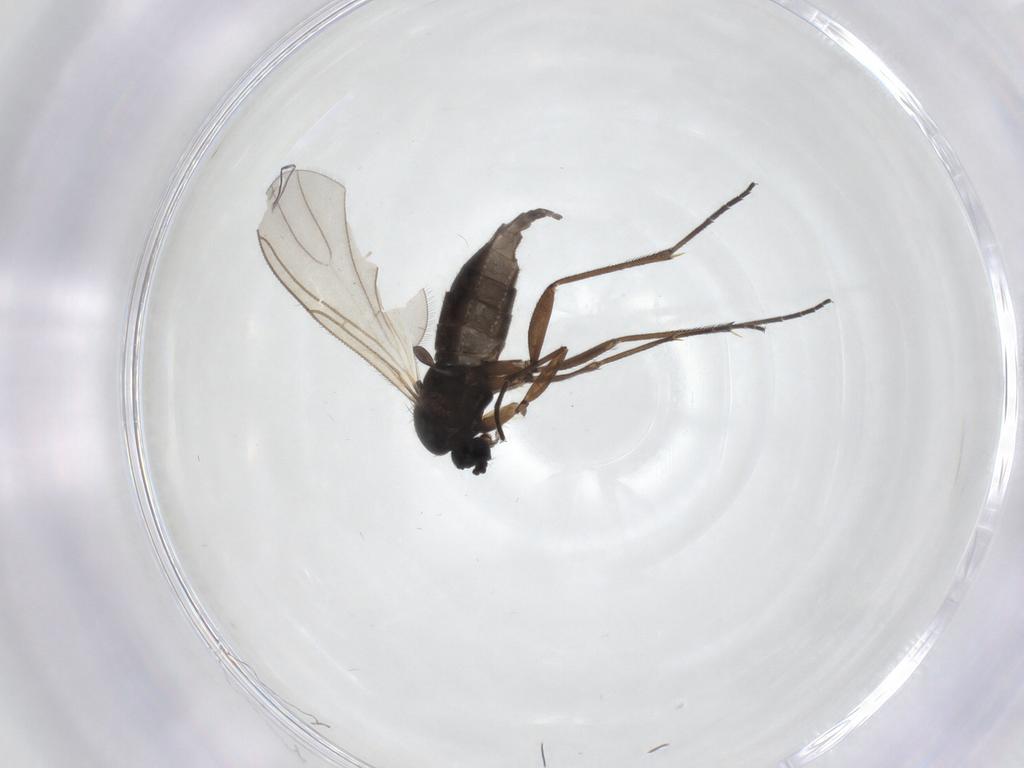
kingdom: Animalia
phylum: Arthropoda
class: Insecta
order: Diptera
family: Sciaridae
